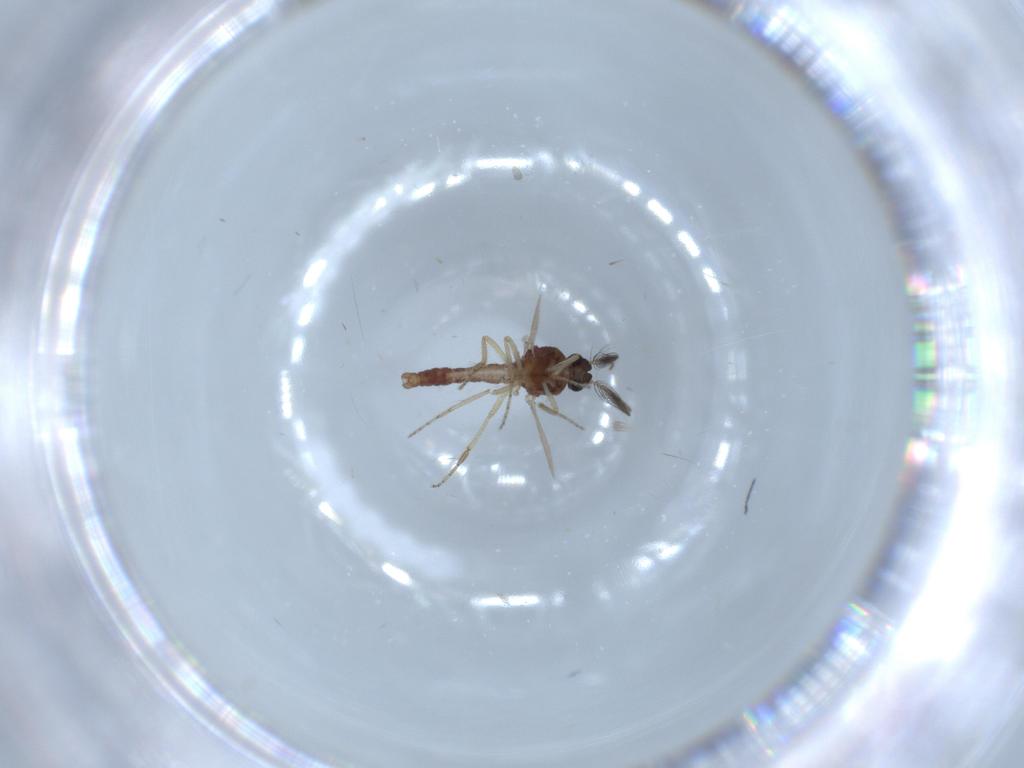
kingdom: Animalia
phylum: Arthropoda
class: Insecta
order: Diptera
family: Ceratopogonidae
